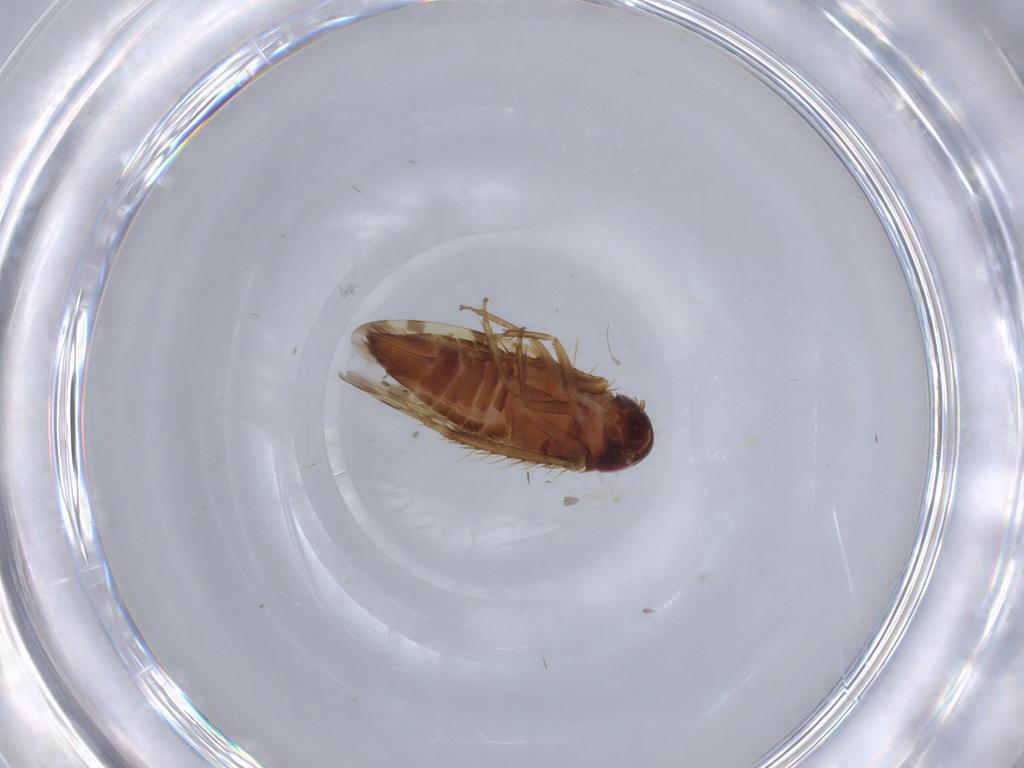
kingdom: Animalia
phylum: Arthropoda
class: Insecta
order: Hemiptera
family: Cicadellidae
